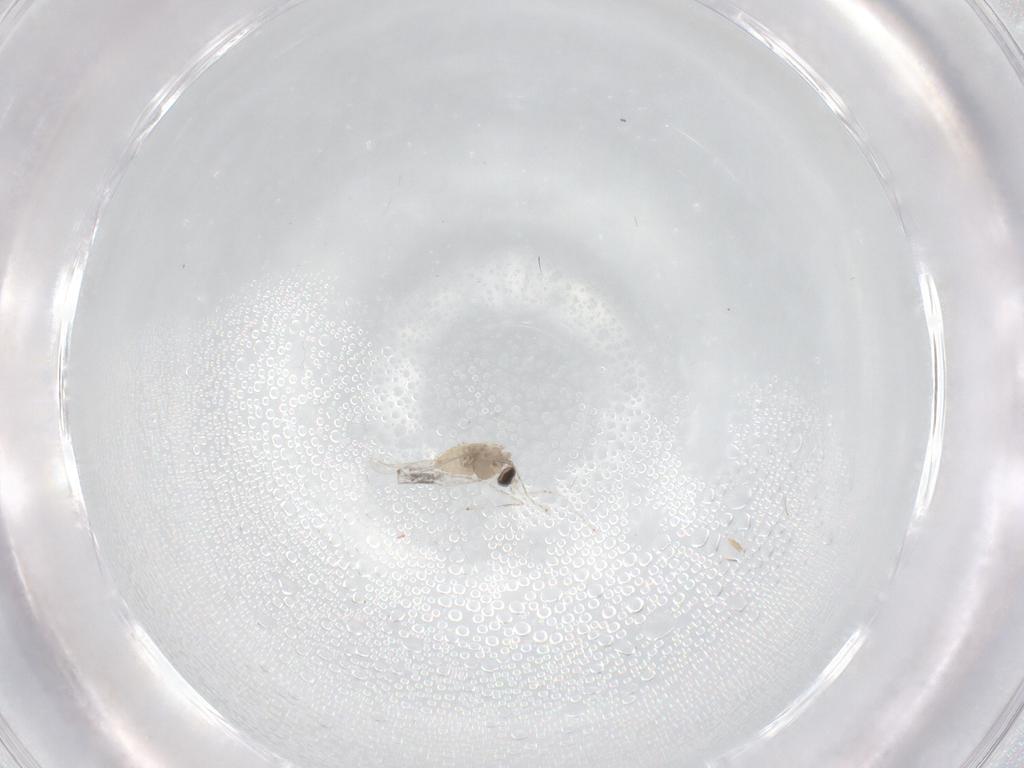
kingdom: Animalia
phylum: Arthropoda
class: Insecta
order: Diptera
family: Cecidomyiidae
